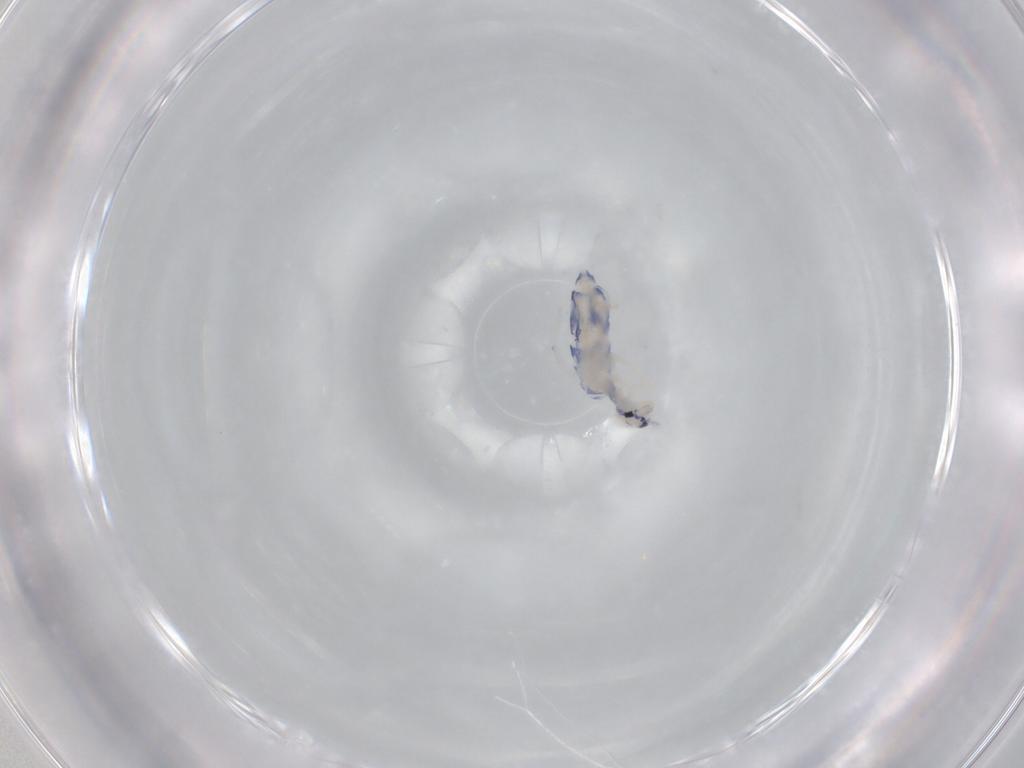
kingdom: Animalia
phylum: Arthropoda
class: Collembola
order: Entomobryomorpha
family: Entomobryidae
